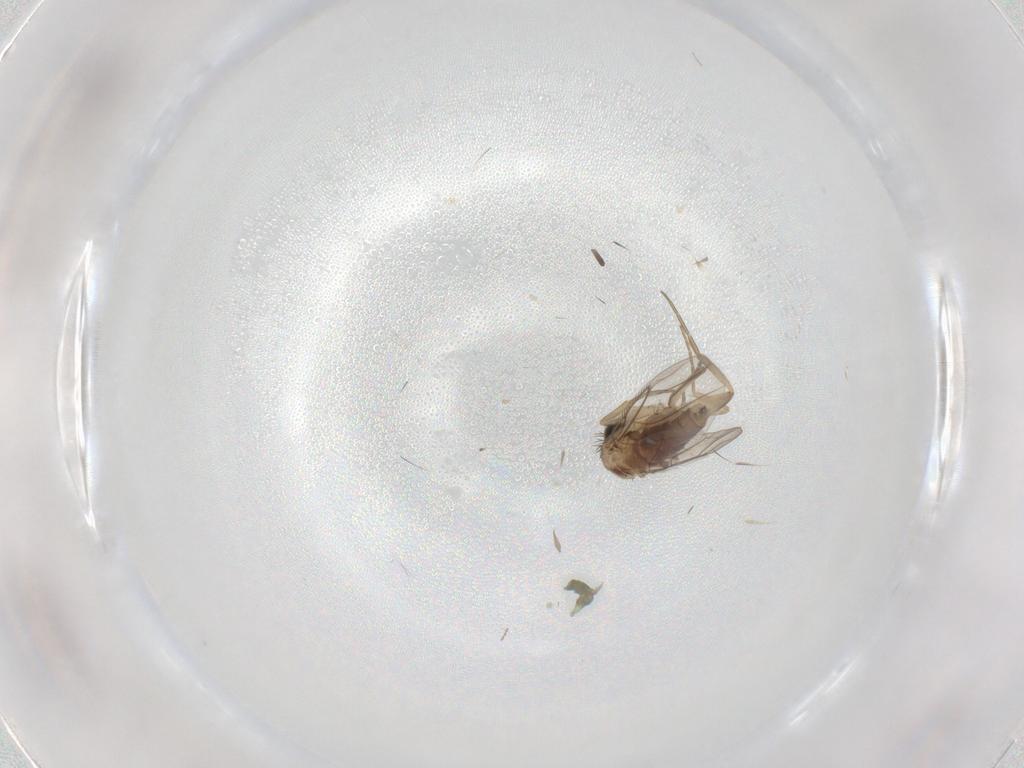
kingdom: Animalia
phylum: Arthropoda
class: Insecta
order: Diptera
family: Phoridae
